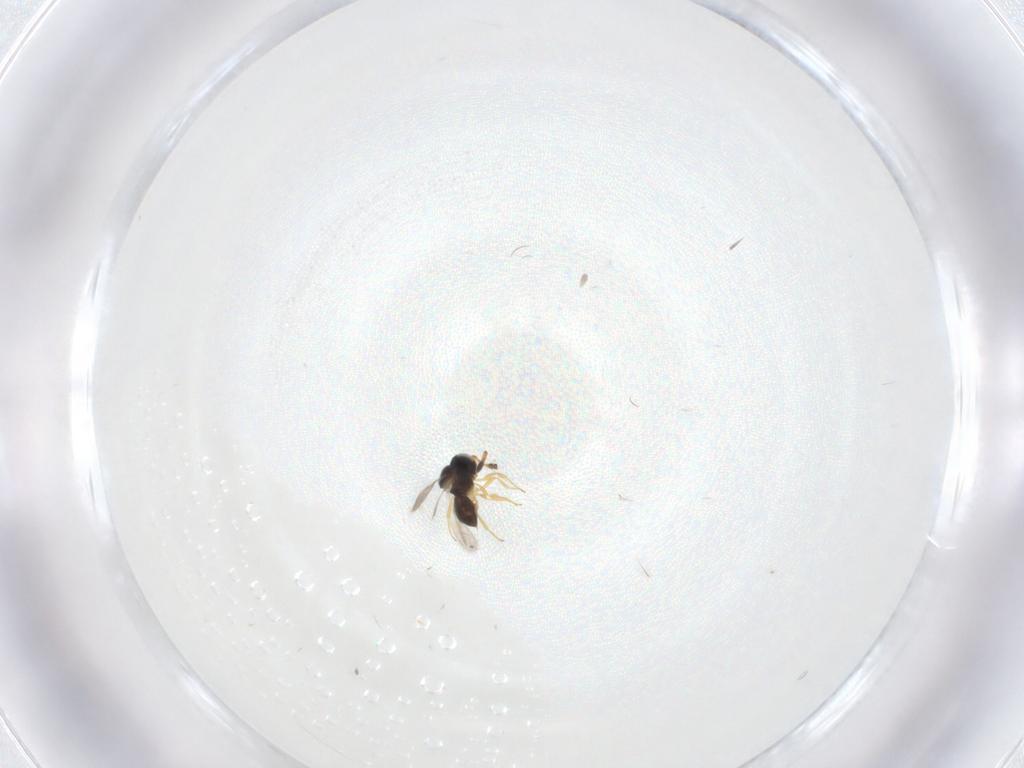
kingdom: Animalia
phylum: Arthropoda
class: Insecta
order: Hymenoptera
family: Scelionidae
